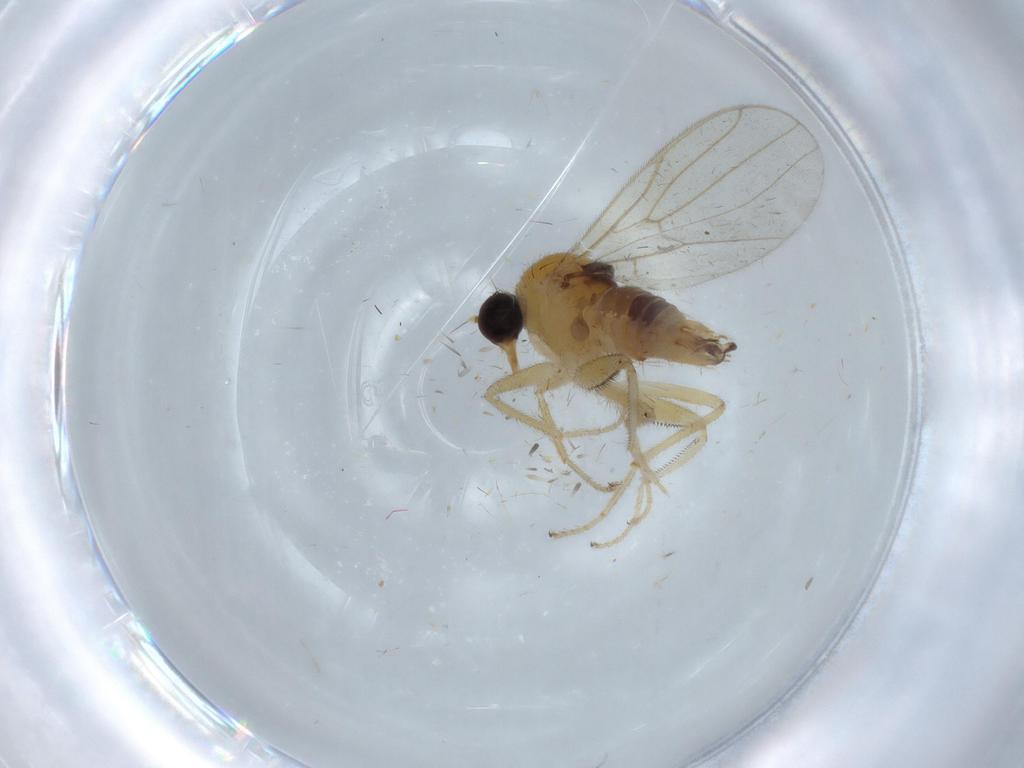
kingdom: Animalia
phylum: Arthropoda
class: Insecta
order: Diptera
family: Hybotidae
